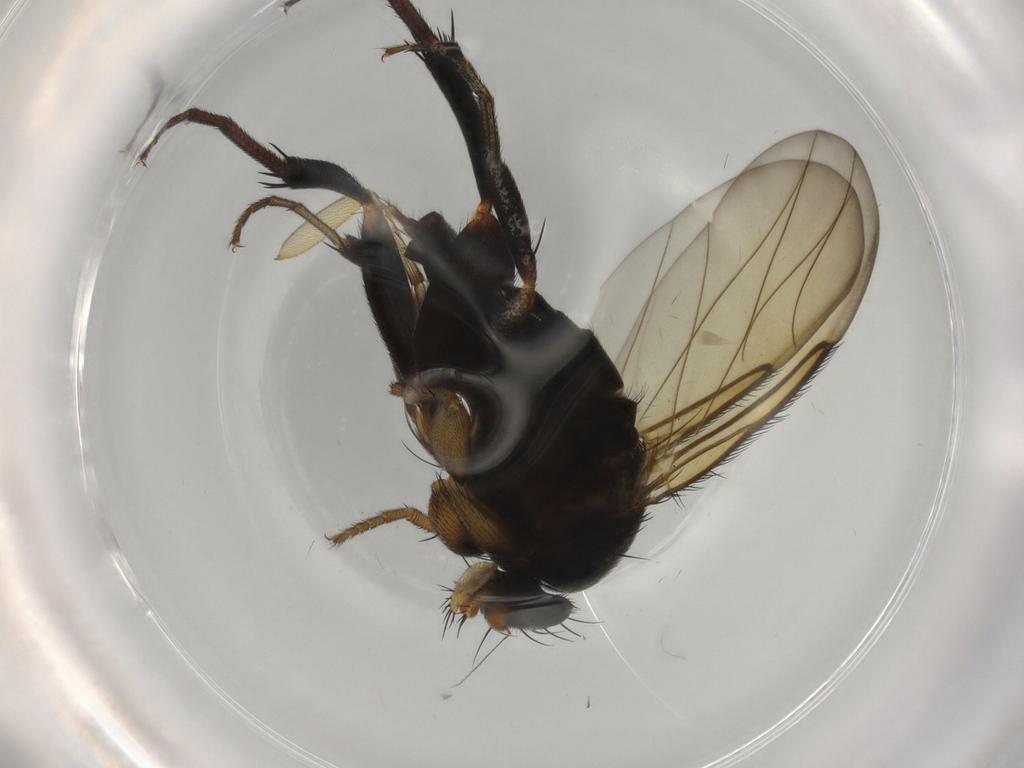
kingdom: Animalia
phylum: Arthropoda
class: Insecta
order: Diptera
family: Phoridae
